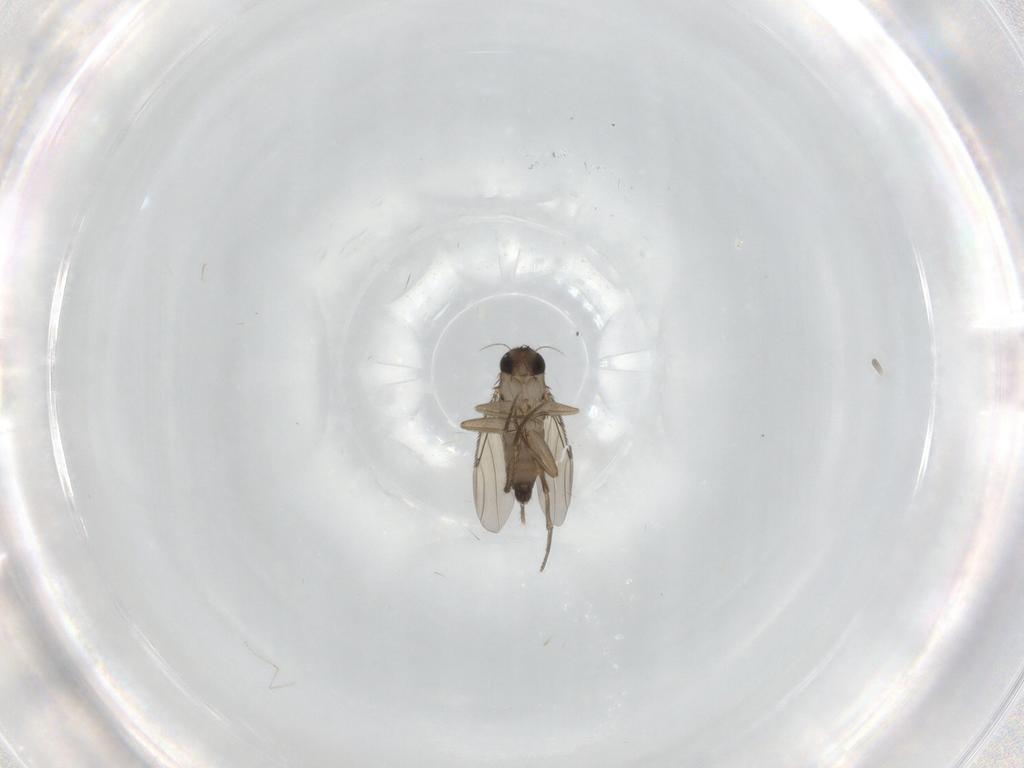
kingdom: Animalia
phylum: Arthropoda
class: Insecta
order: Diptera
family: Phoridae
